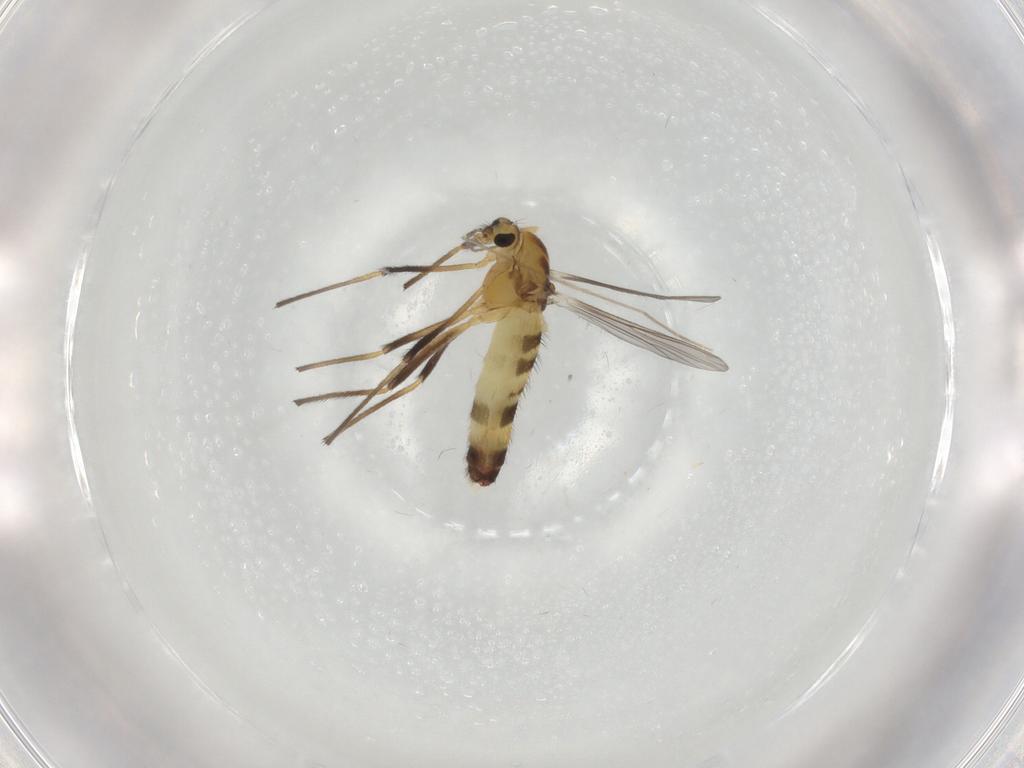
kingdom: Animalia
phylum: Arthropoda
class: Insecta
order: Diptera
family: Chironomidae
